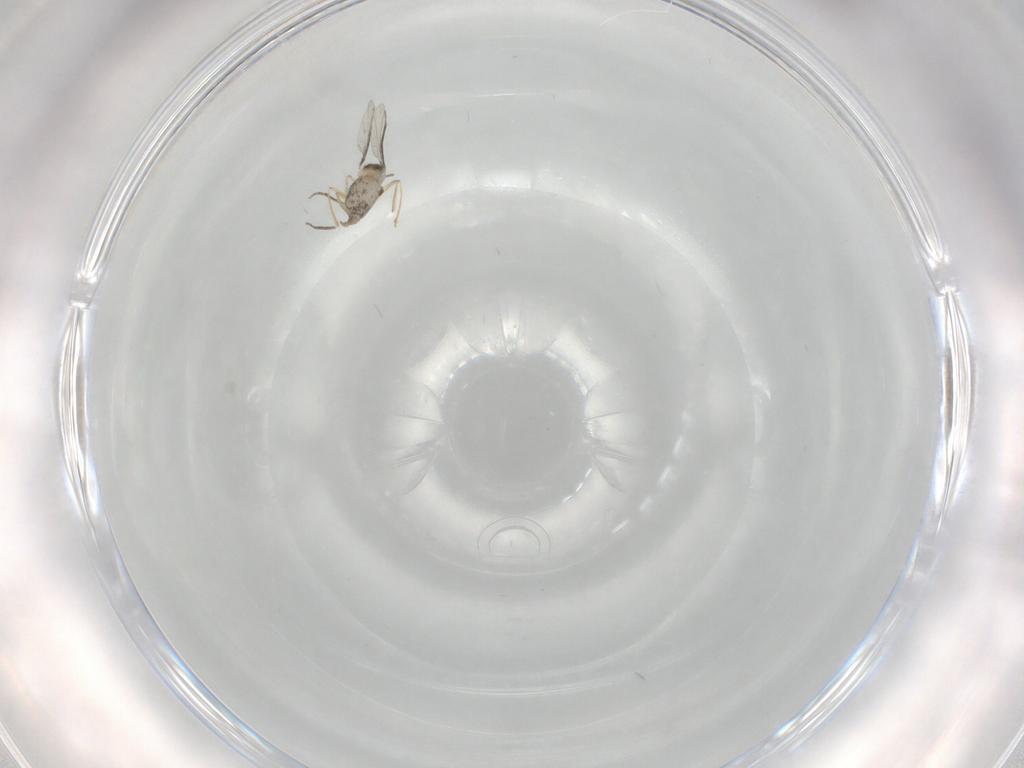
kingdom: Animalia
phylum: Arthropoda
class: Insecta
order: Diptera
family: Cecidomyiidae
